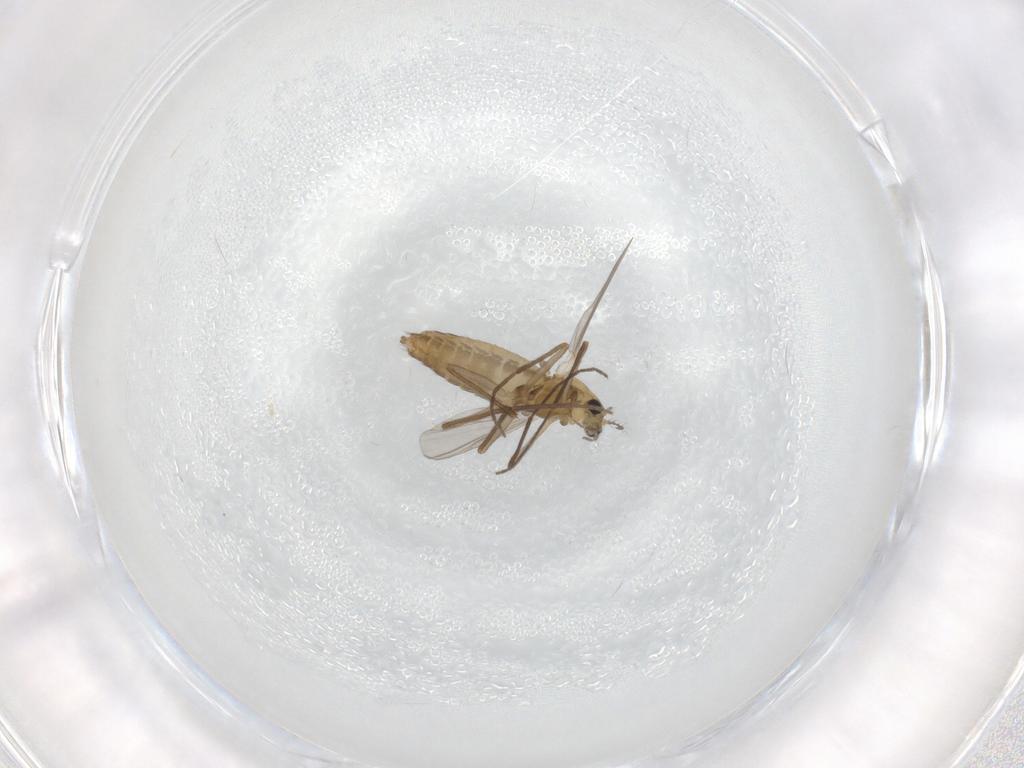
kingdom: Animalia
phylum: Arthropoda
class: Insecta
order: Diptera
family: Chironomidae
